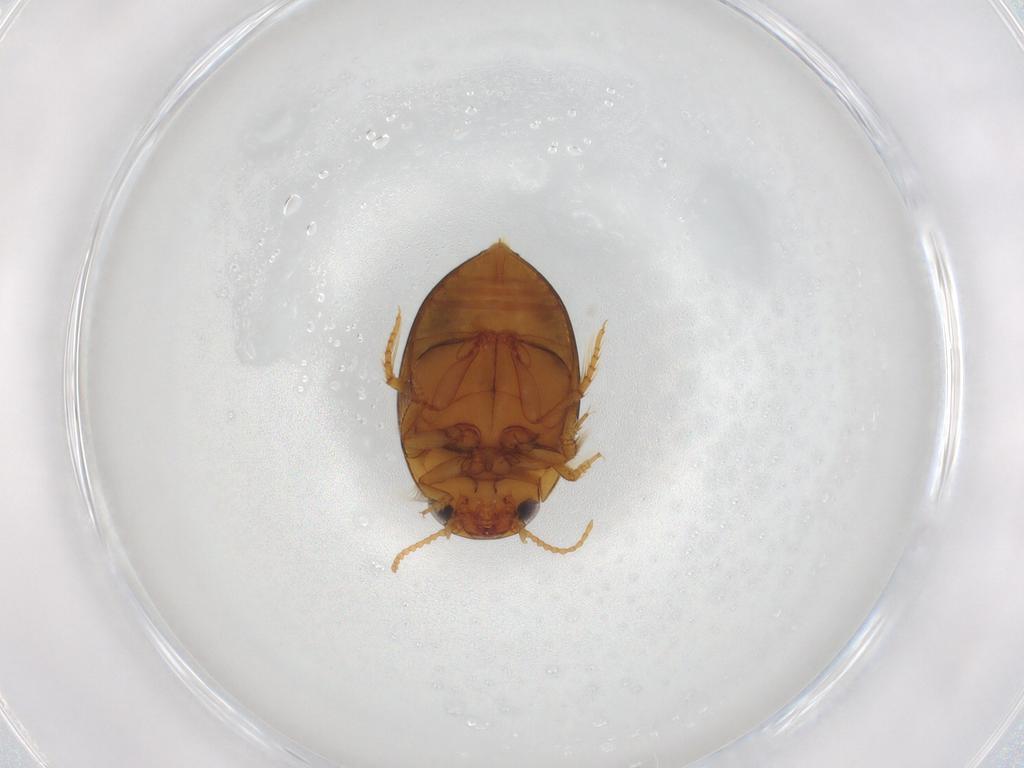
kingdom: Animalia
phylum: Arthropoda
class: Insecta
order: Coleoptera
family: Dytiscidae
